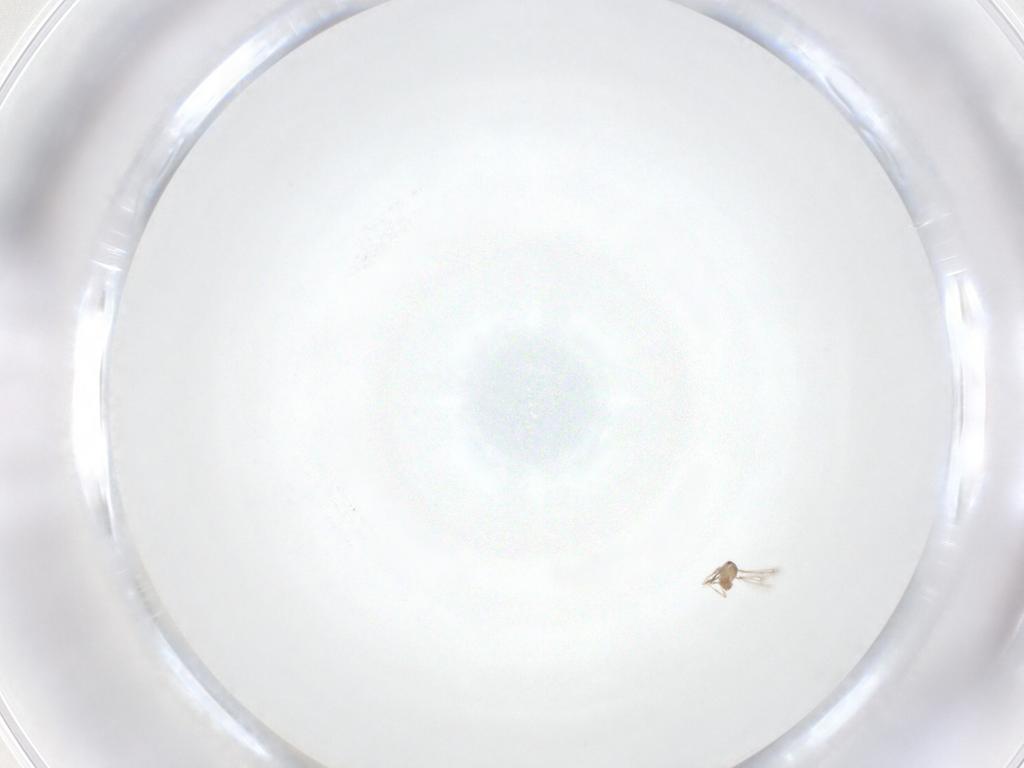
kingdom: Animalia
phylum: Arthropoda
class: Insecta
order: Hymenoptera
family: Mymaridae
